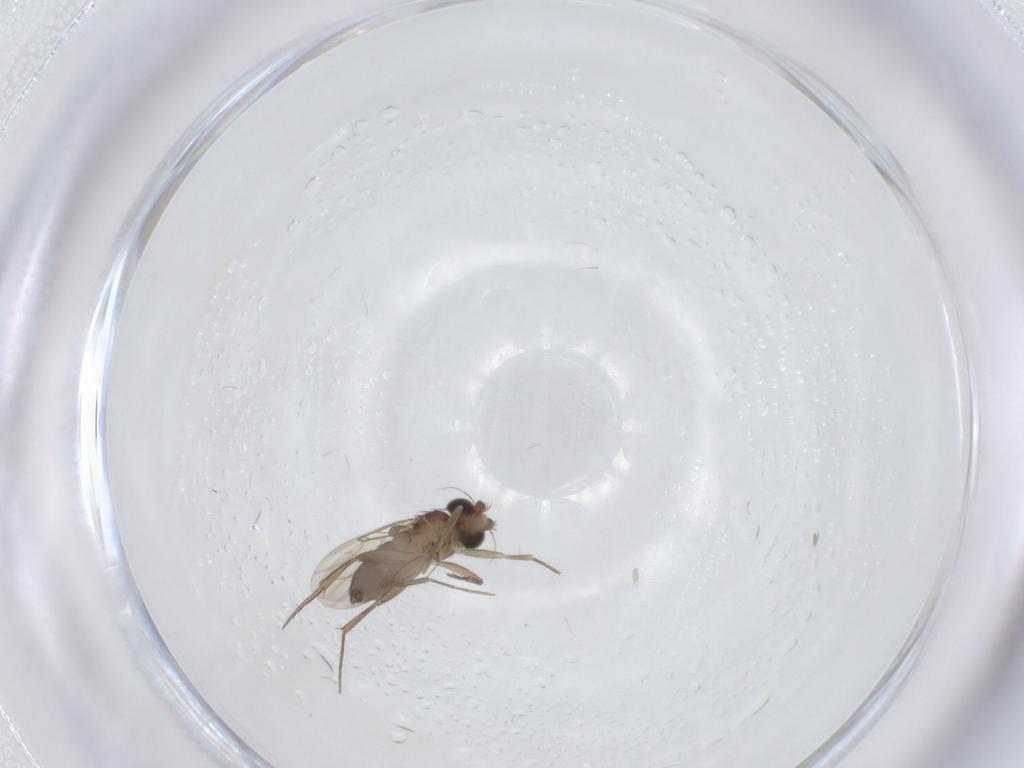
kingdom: Animalia
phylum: Arthropoda
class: Insecta
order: Diptera
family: Phoridae
